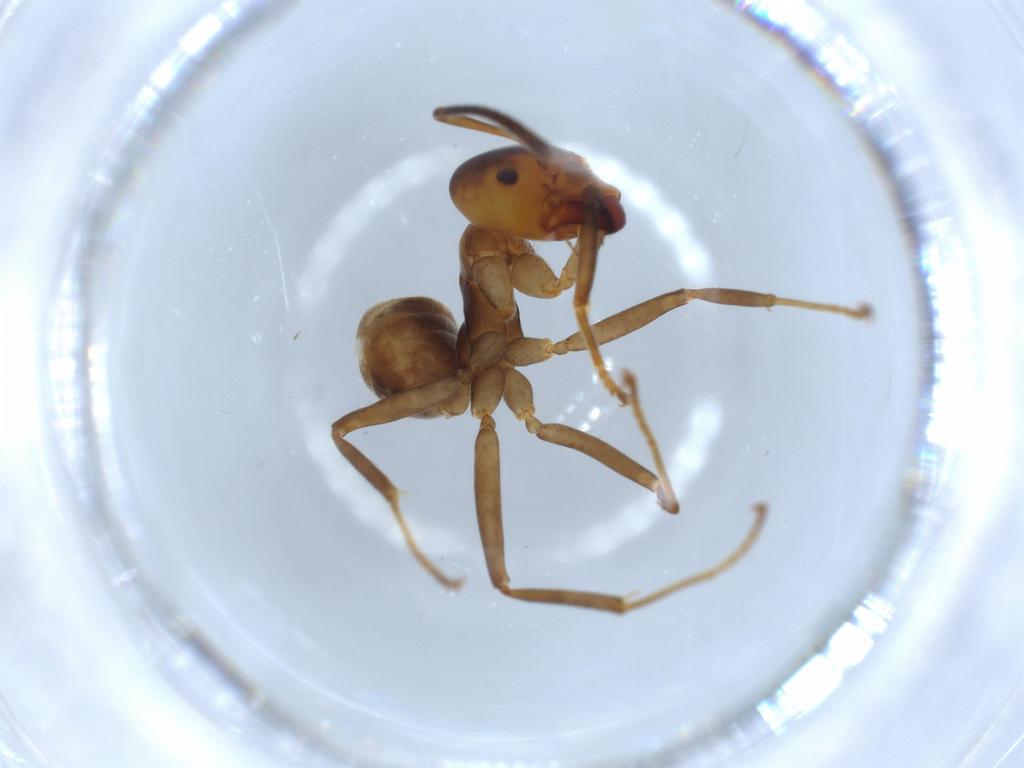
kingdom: Animalia
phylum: Arthropoda
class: Insecta
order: Hymenoptera
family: Formicidae
